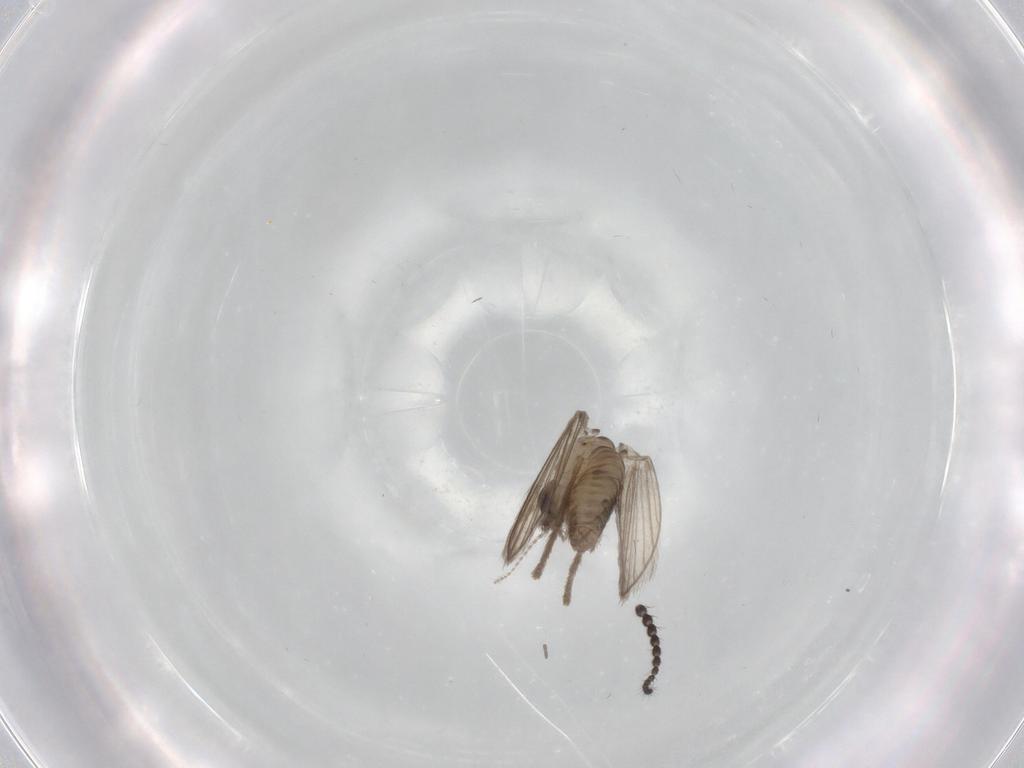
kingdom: Animalia
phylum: Arthropoda
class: Insecta
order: Diptera
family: Psychodidae
